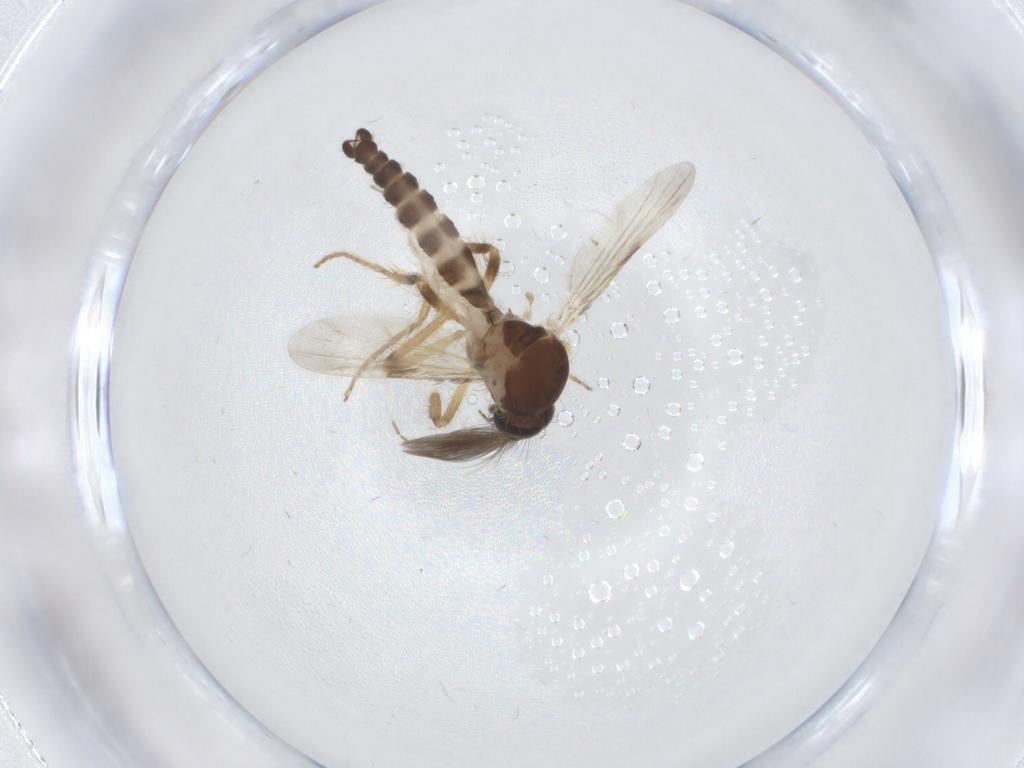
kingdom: Animalia
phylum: Arthropoda
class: Insecta
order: Diptera
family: Ceratopogonidae
